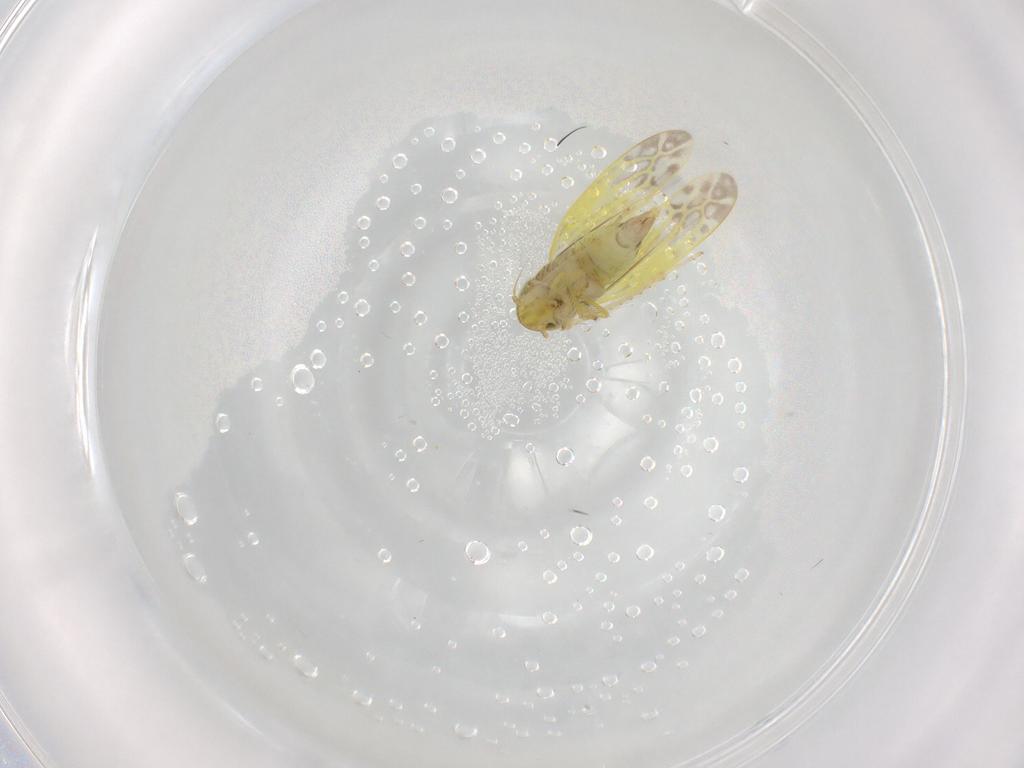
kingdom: Animalia
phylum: Arthropoda
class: Insecta
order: Hemiptera
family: Cicadellidae
